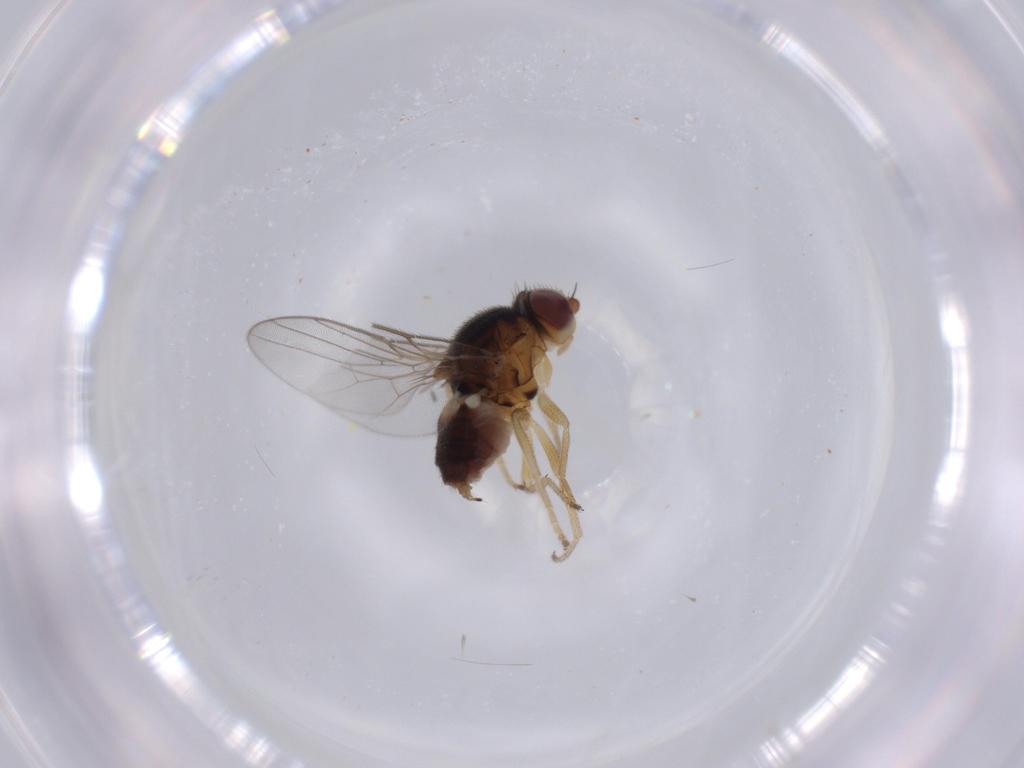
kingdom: Animalia
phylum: Arthropoda
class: Insecta
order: Diptera
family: Chloropidae
